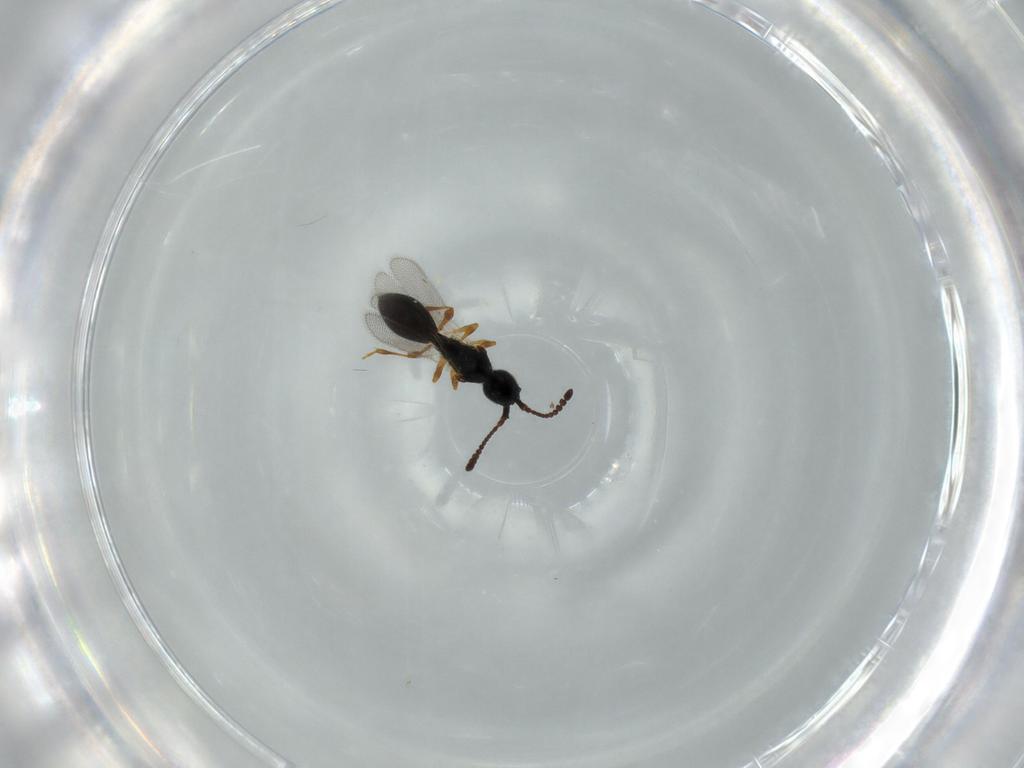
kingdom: Animalia
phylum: Arthropoda
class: Insecta
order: Hymenoptera
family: Diapriidae
